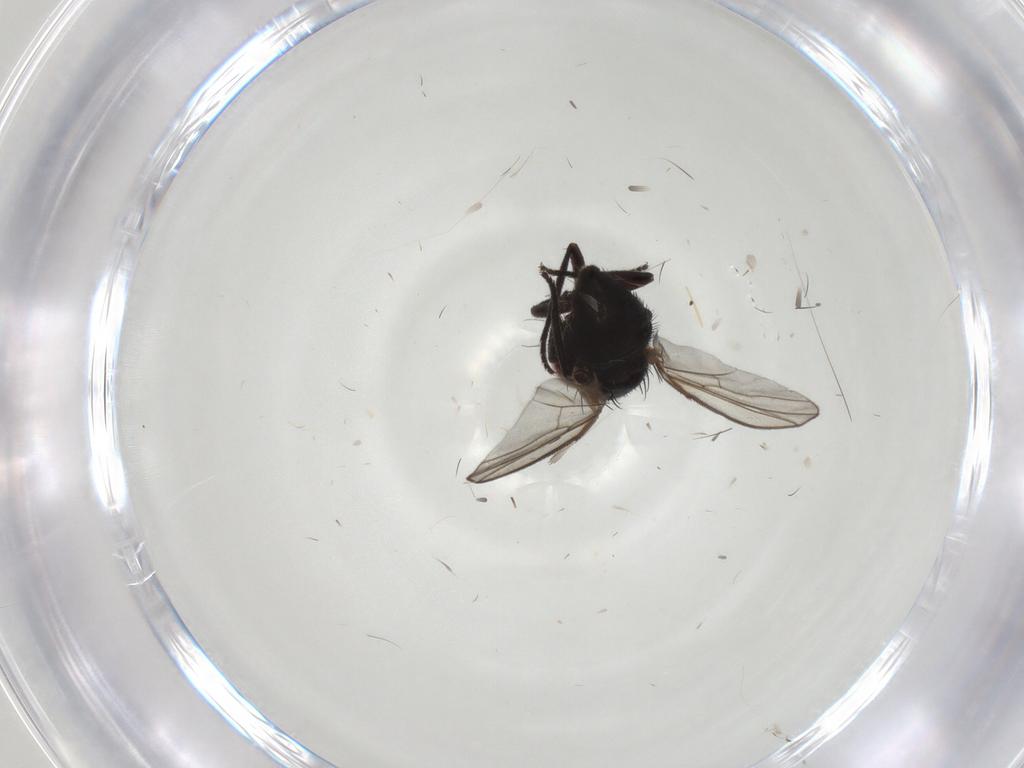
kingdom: Animalia
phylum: Arthropoda
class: Insecta
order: Diptera
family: Agromyzidae
